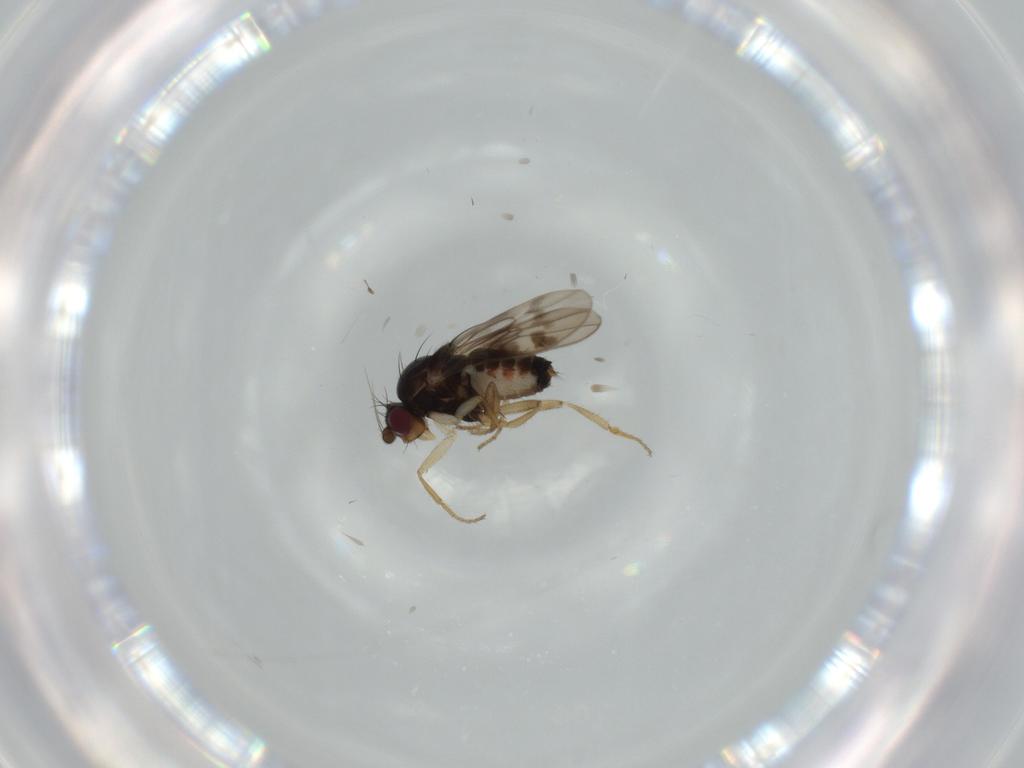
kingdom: Animalia
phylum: Arthropoda
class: Insecta
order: Diptera
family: Sphaeroceridae
